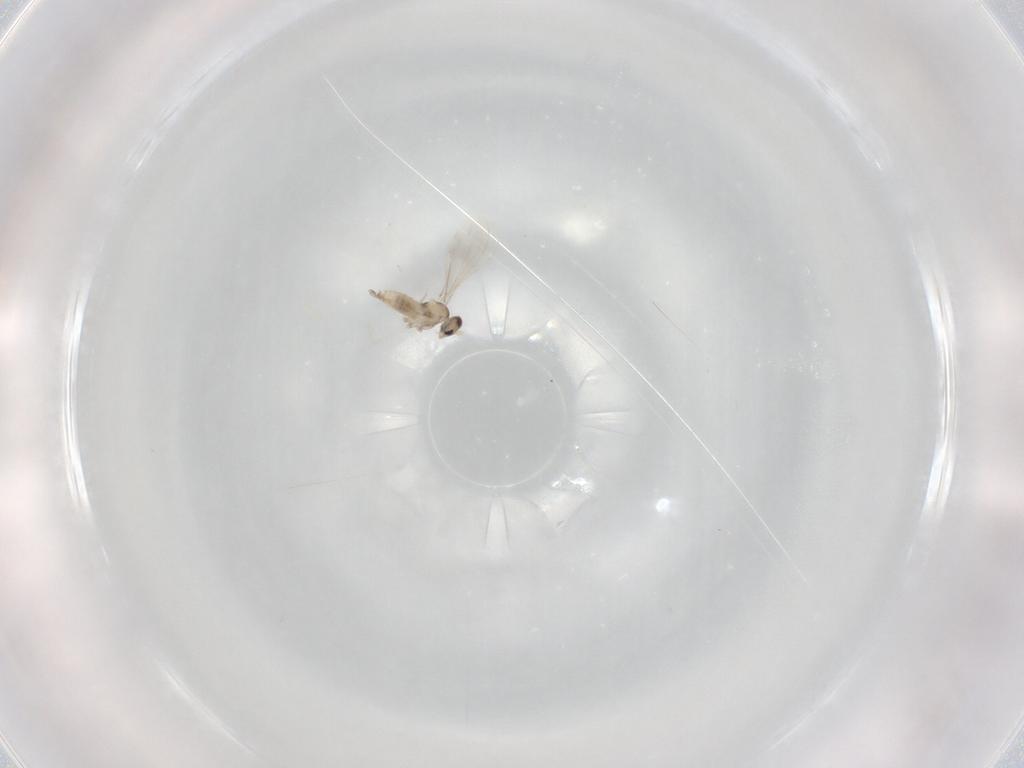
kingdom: Animalia
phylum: Arthropoda
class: Insecta
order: Diptera
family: Cecidomyiidae
